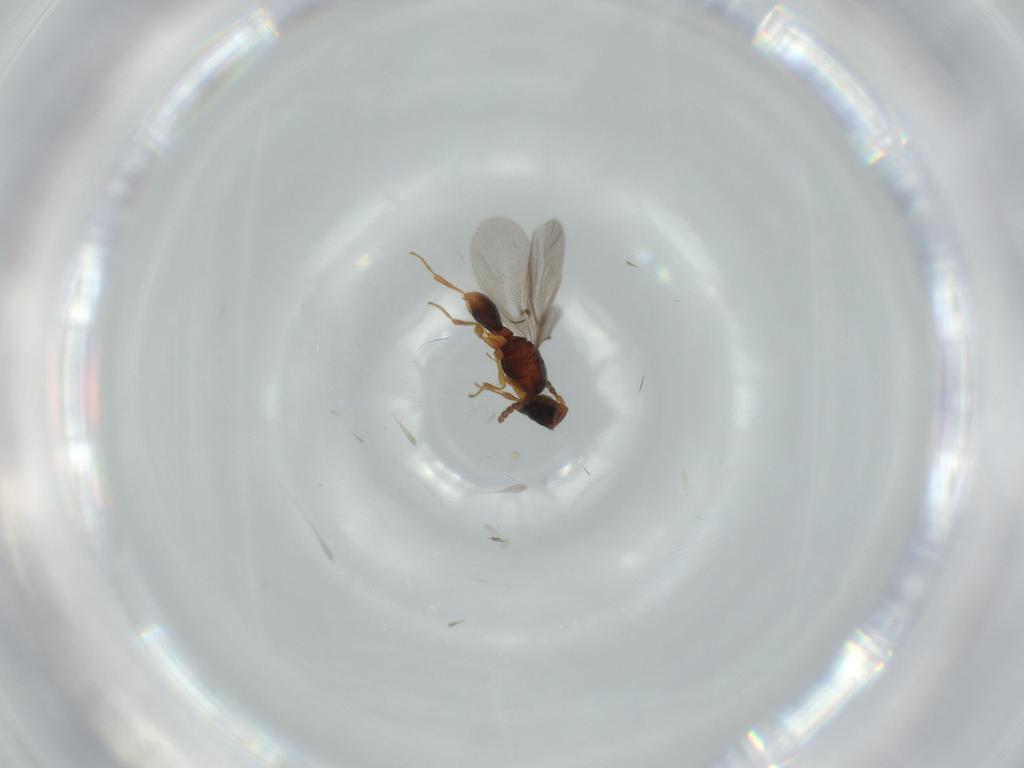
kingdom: Animalia
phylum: Arthropoda
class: Insecta
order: Hymenoptera
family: Diapriidae
